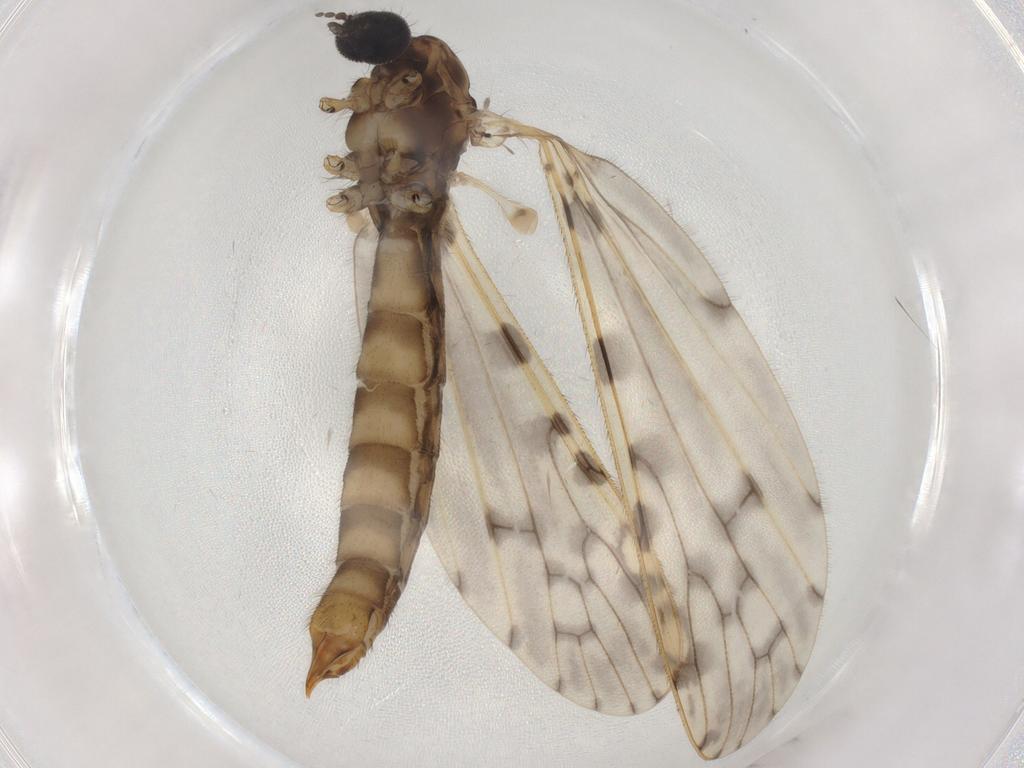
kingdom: Animalia
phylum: Arthropoda
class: Insecta
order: Diptera
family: Limoniidae
